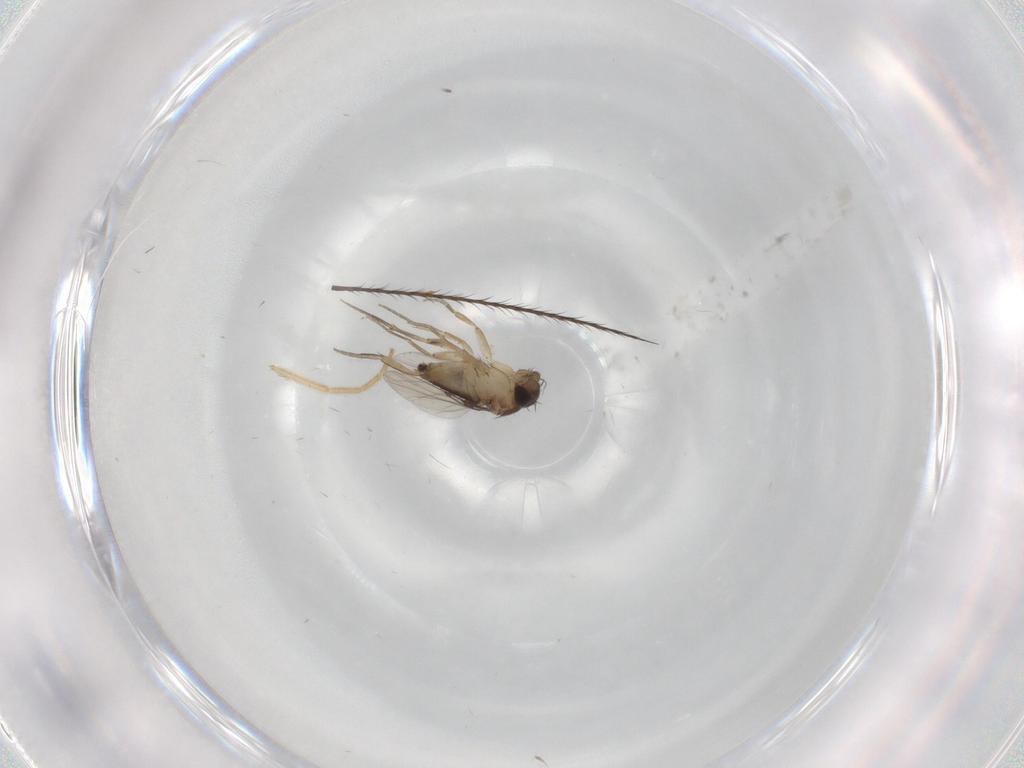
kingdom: Animalia
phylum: Arthropoda
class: Insecta
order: Diptera
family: Phoridae
